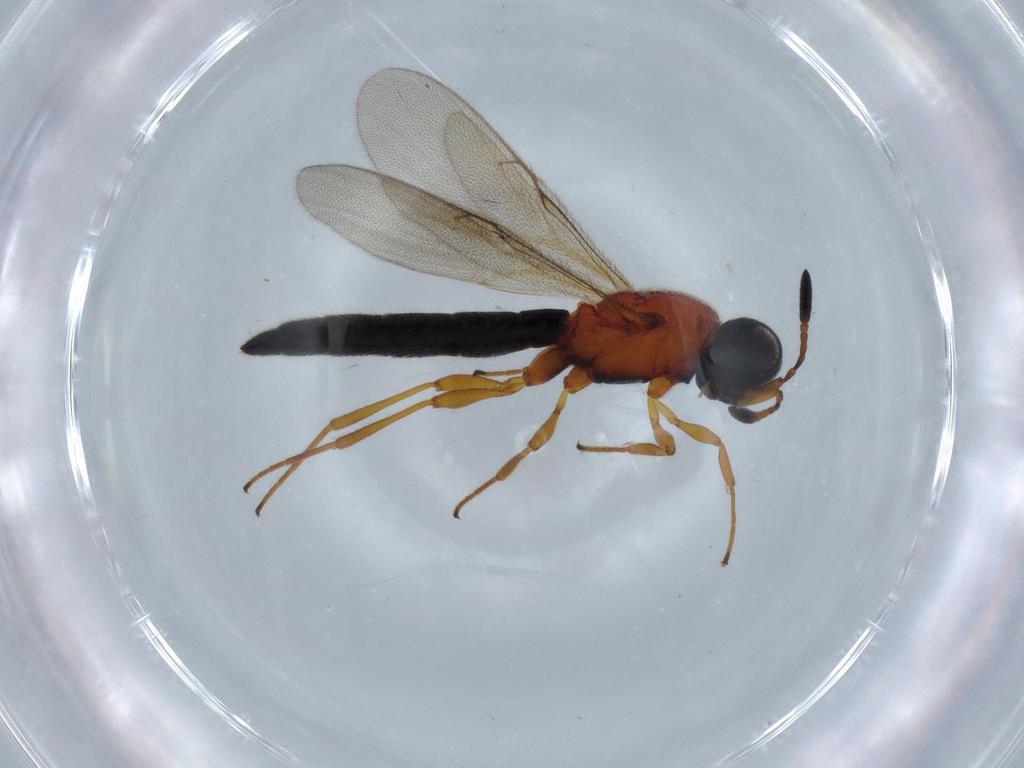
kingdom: Animalia
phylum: Arthropoda
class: Insecta
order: Hymenoptera
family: Scelionidae
